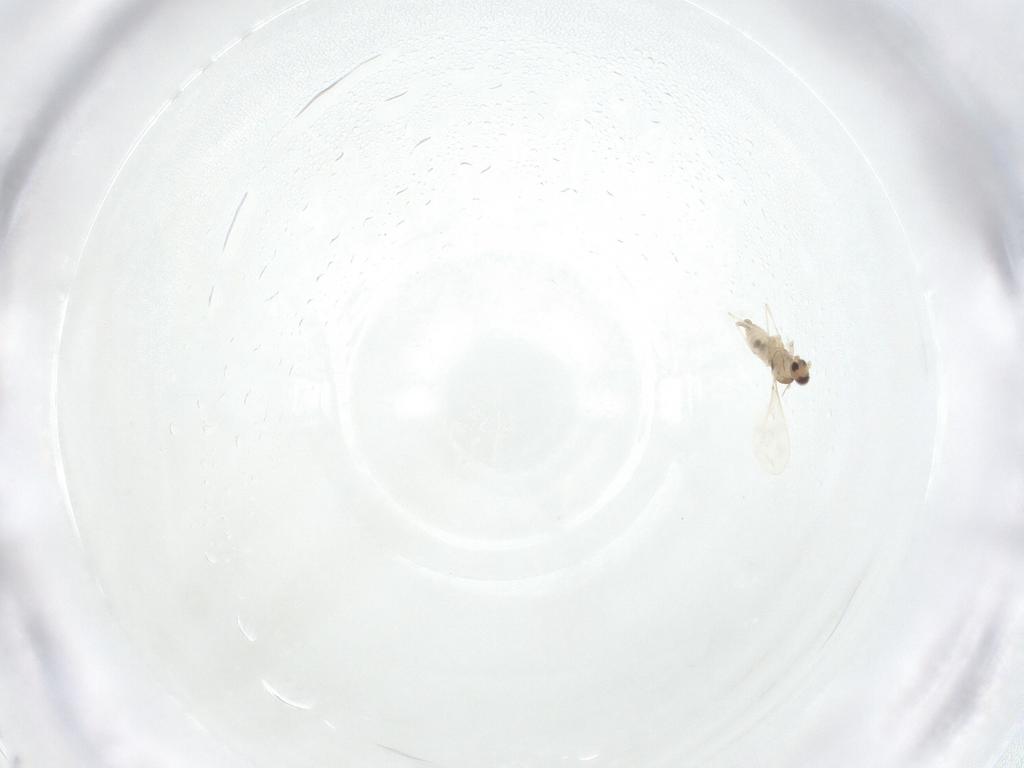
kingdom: Animalia
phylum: Arthropoda
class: Insecta
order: Diptera
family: Cecidomyiidae
